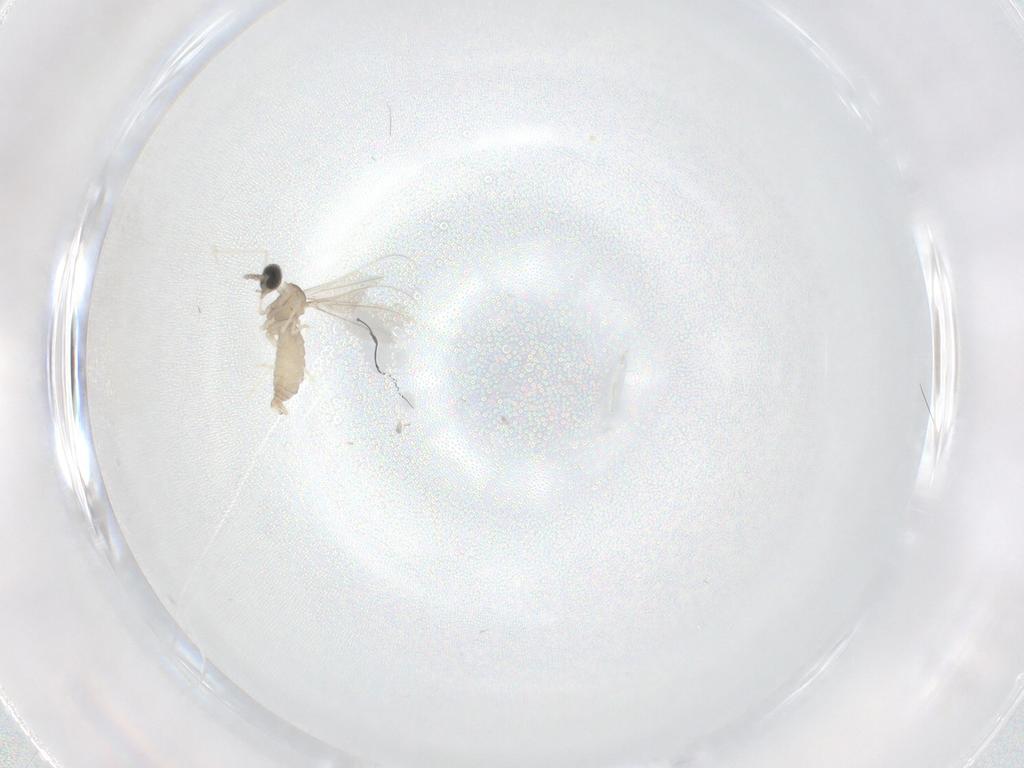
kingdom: Animalia
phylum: Arthropoda
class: Insecta
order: Diptera
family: Cecidomyiidae
